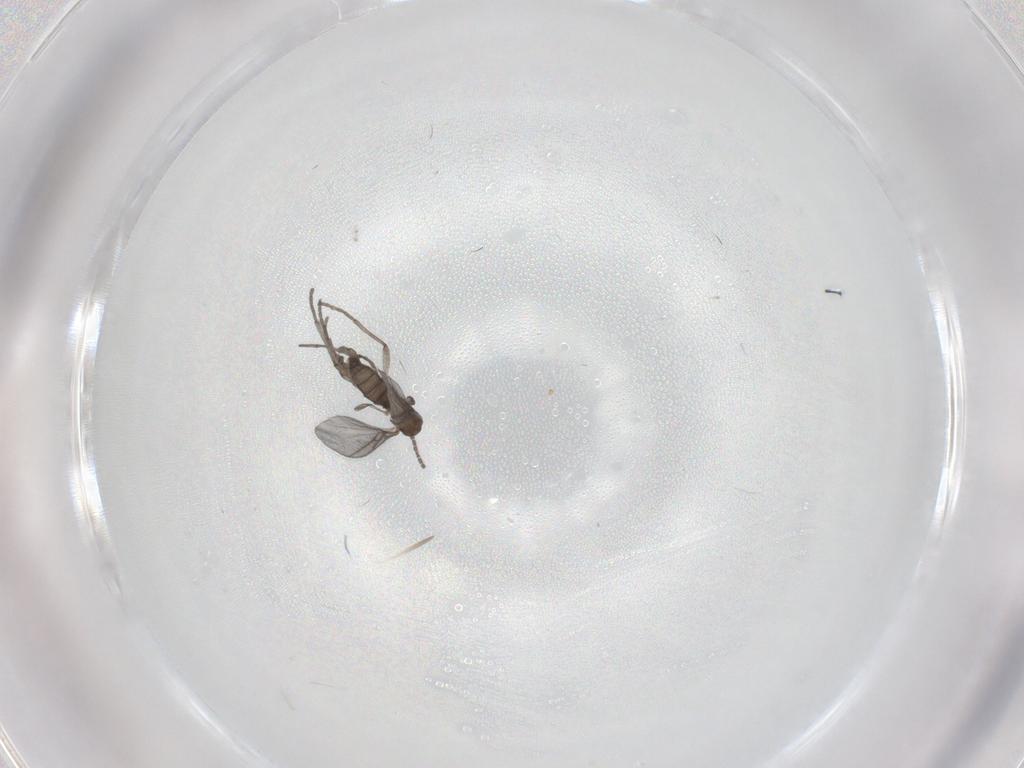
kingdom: Animalia
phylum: Arthropoda
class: Insecta
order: Diptera
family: Sciaridae
